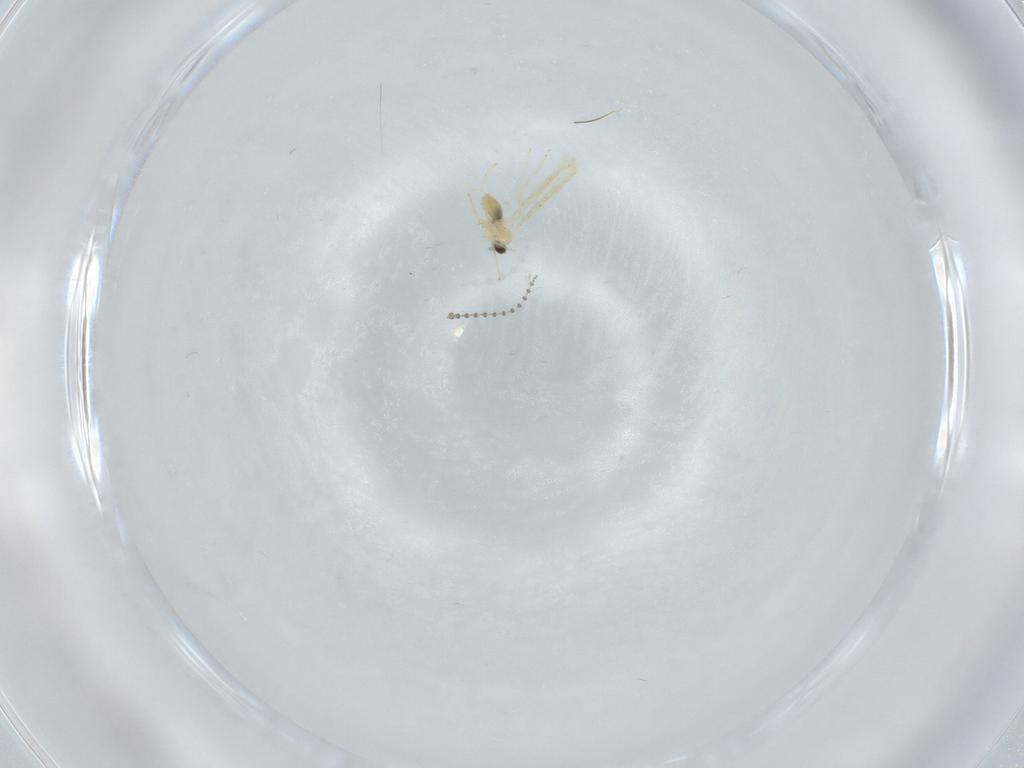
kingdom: Animalia
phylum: Arthropoda
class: Insecta
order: Diptera
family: Cecidomyiidae
